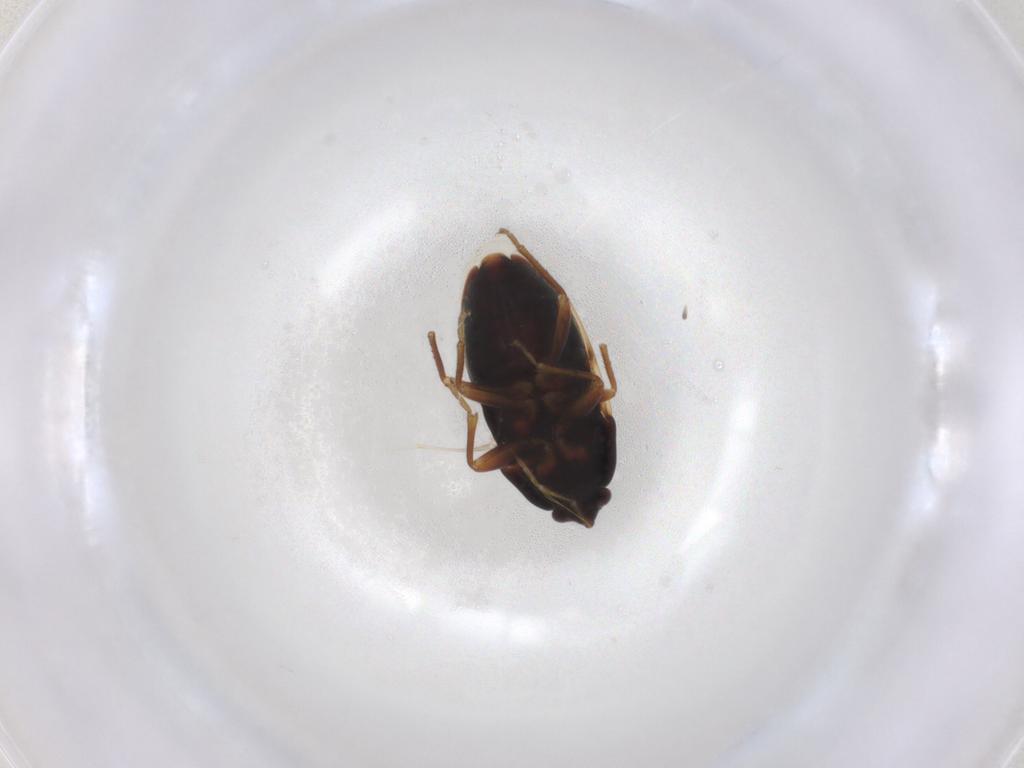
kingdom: Animalia
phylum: Arthropoda
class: Insecta
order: Hemiptera
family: Rhyparochromidae
